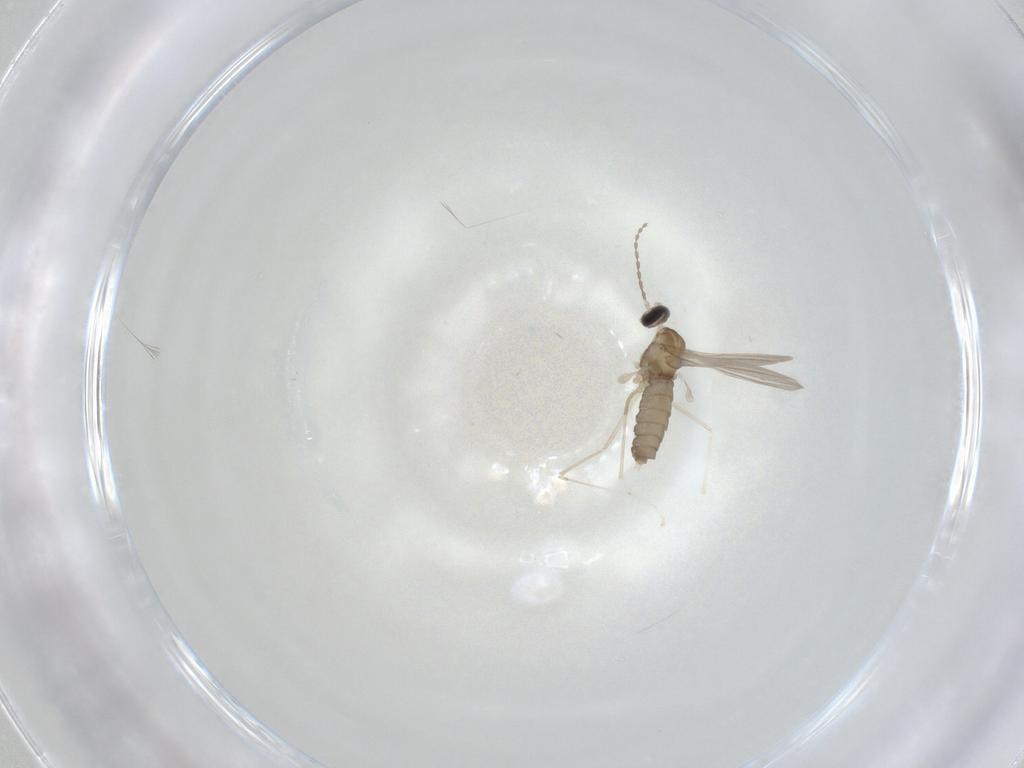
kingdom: Animalia
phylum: Arthropoda
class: Insecta
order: Diptera
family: Cecidomyiidae
